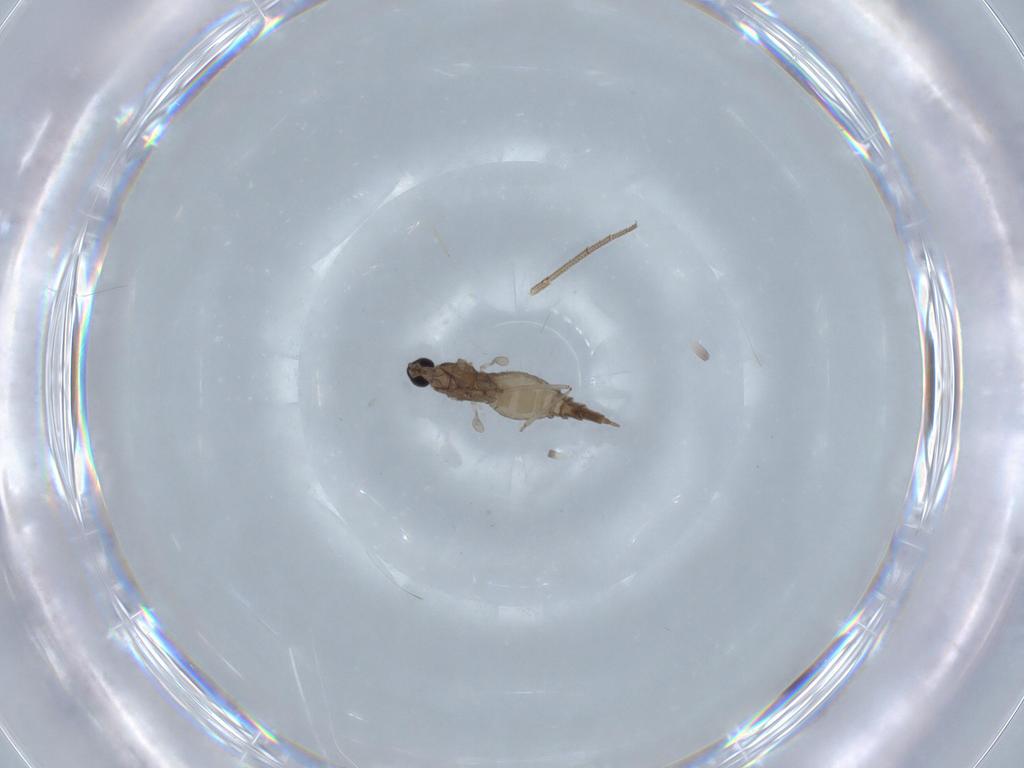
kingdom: Animalia
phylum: Arthropoda
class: Insecta
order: Diptera
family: Cecidomyiidae
